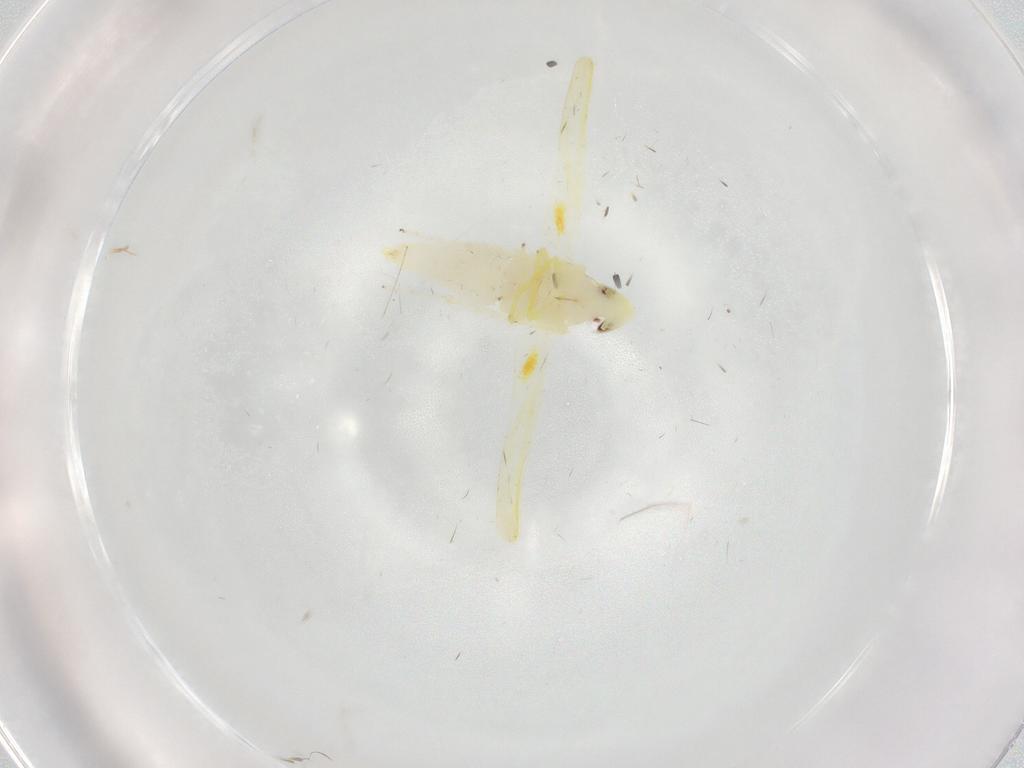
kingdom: Animalia
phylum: Arthropoda
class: Insecta
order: Hemiptera
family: Cicadellidae
